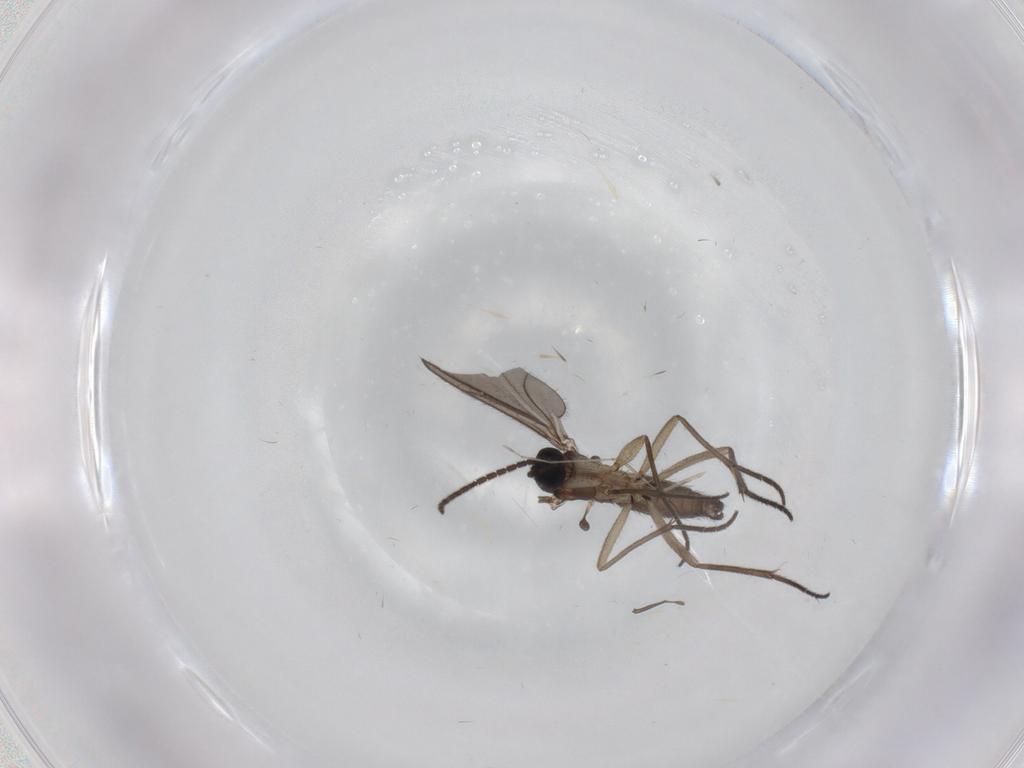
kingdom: Animalia
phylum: Arthropoda
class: Insecta
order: Diptera
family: Sciaridae
